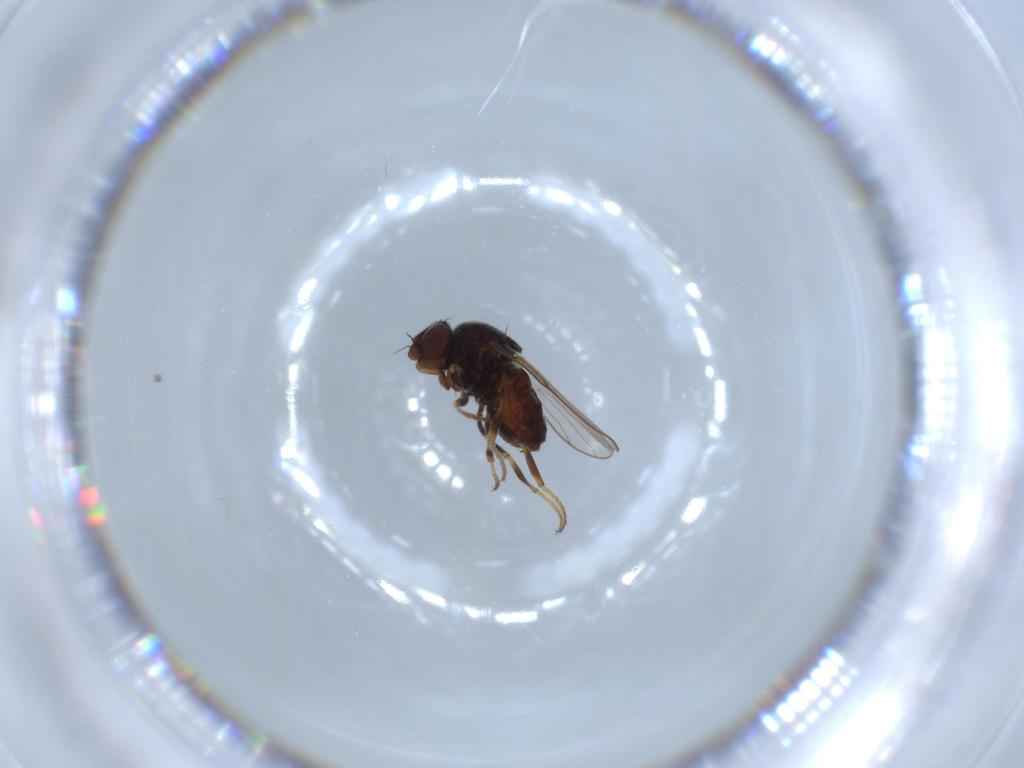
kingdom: Animalia
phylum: Arthropoda
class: Insecta
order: Diptera
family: Chloropidae
